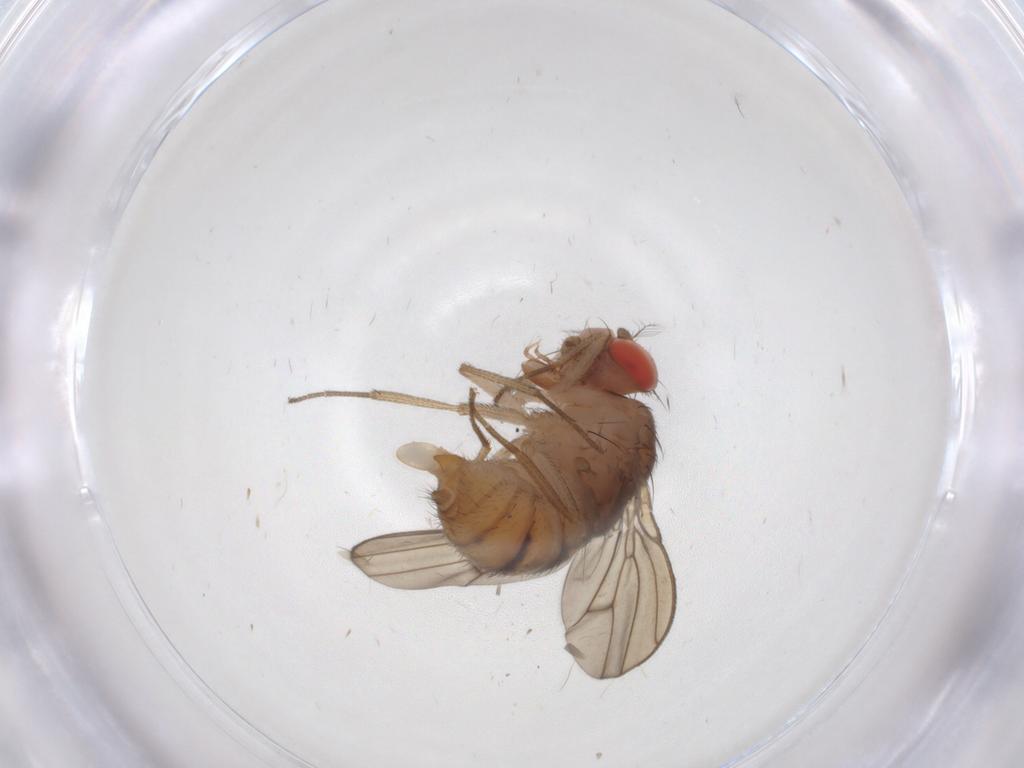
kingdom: Animalia
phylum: Arthropoda
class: Insecta
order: Diptera
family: Drosophilidae
